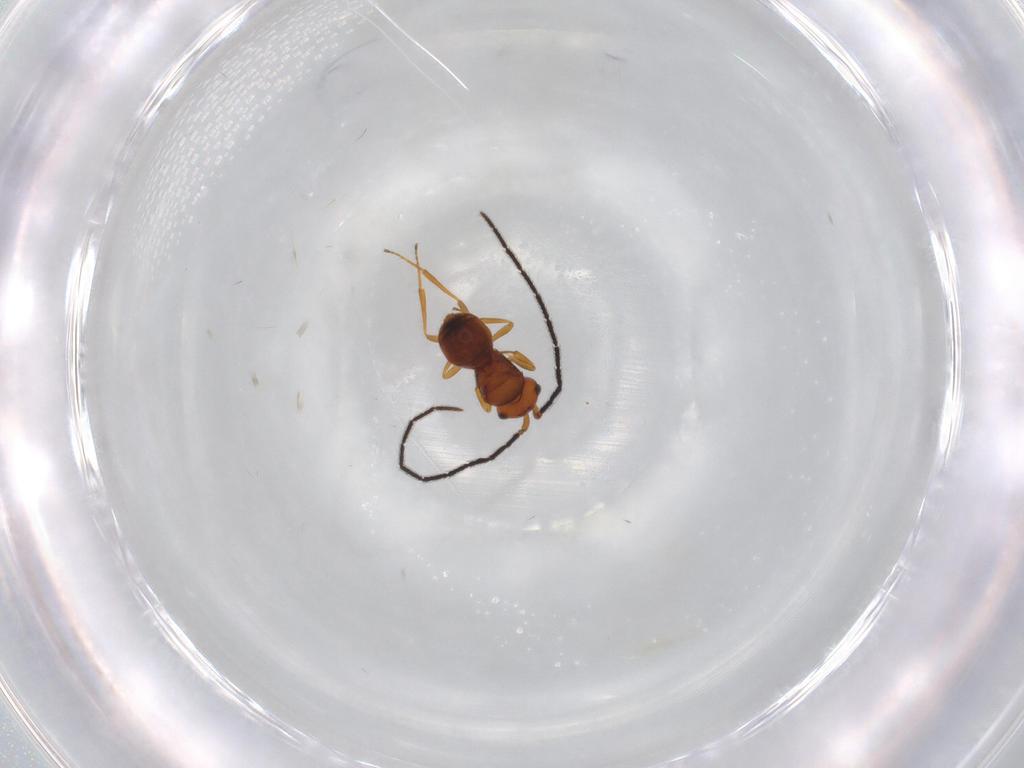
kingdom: Animalia
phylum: Arthropoda
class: Insecta
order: Hymenoptera
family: Scelionidae
